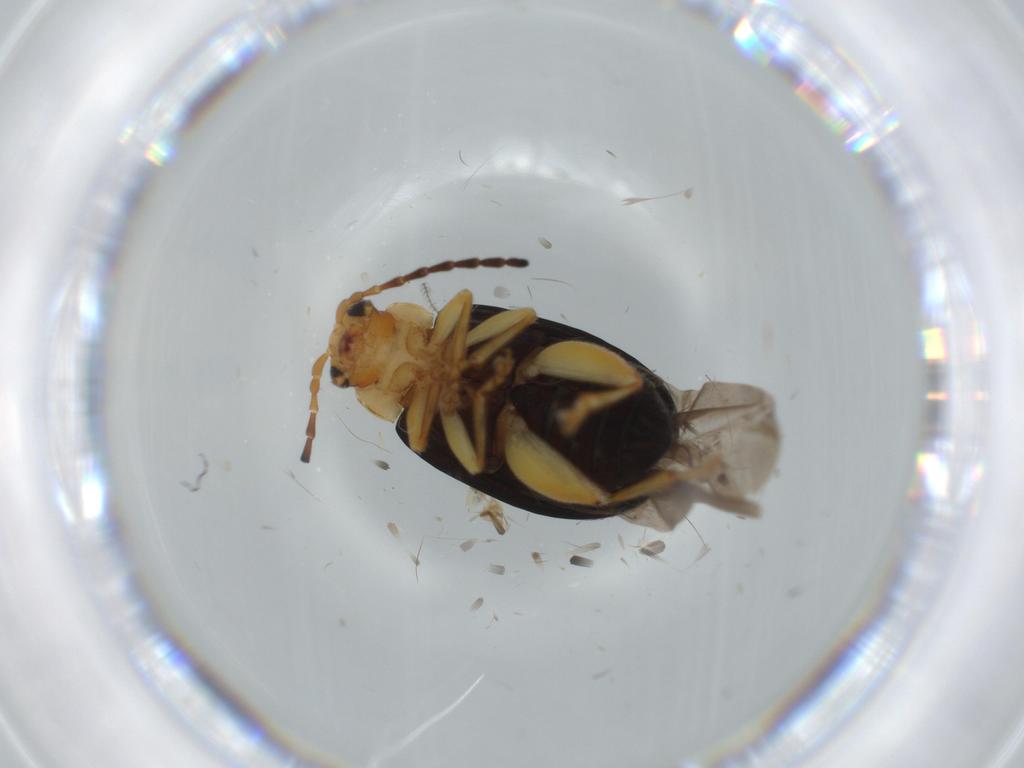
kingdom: Animalia
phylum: Arthropoda
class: Insecta
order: Coleoptera
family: Chrysomelidae
